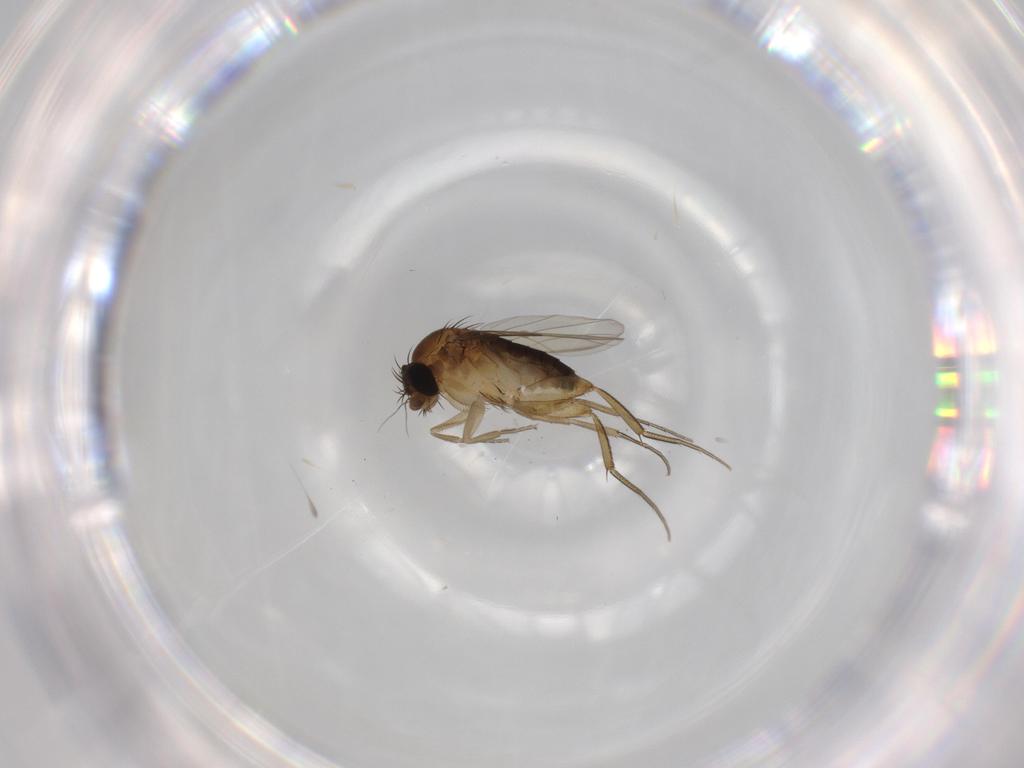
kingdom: Animalia
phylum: Arthropoda
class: Insecta
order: Diptera
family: Phoridae
